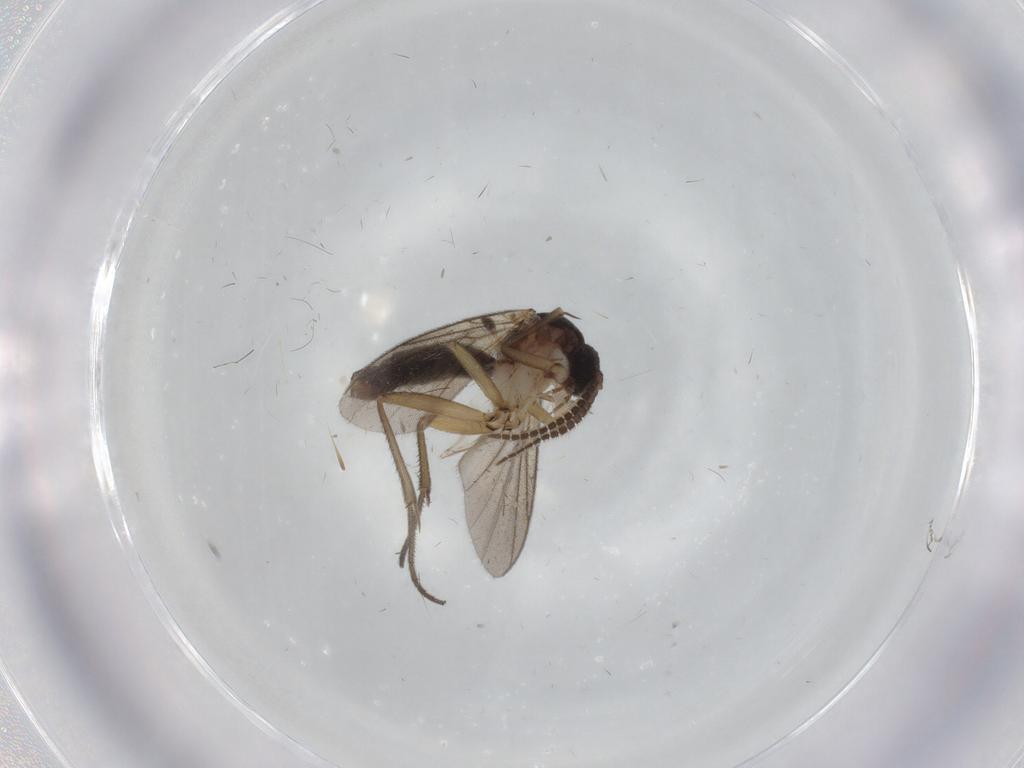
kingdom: Animalia
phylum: Arthropoda
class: Insecta
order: Diptera
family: Mycetophilidae
